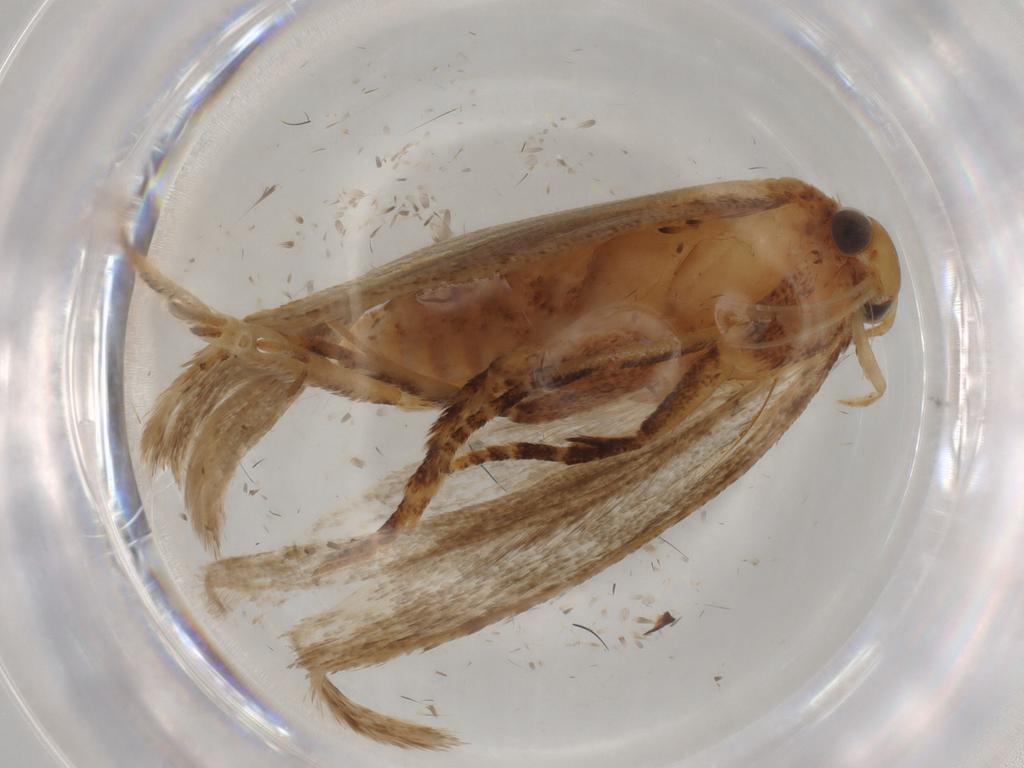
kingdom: Animalia
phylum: Arthropoda
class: Insecta
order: Lepidoptera
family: Gelechiidae
